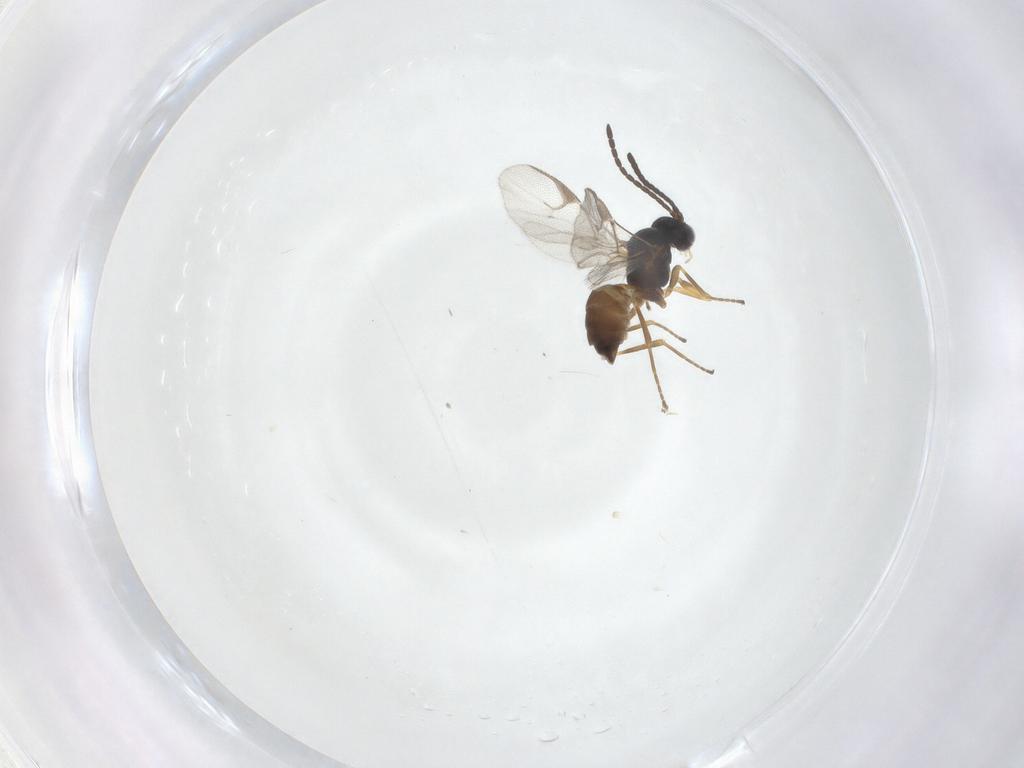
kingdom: Animalia
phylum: Arthropoda
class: Insecta
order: Hymenoptera
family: Braconidae
